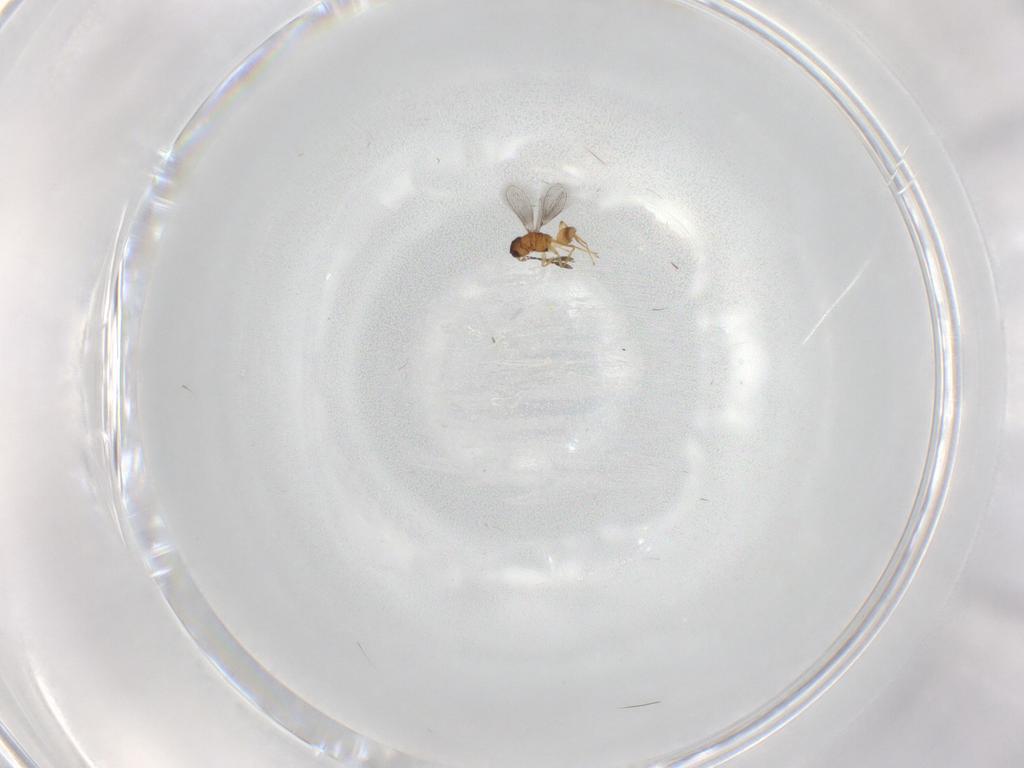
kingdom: Animalia
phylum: Arthropoda
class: Insecta
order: Hymenoptera
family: Mymaridae
